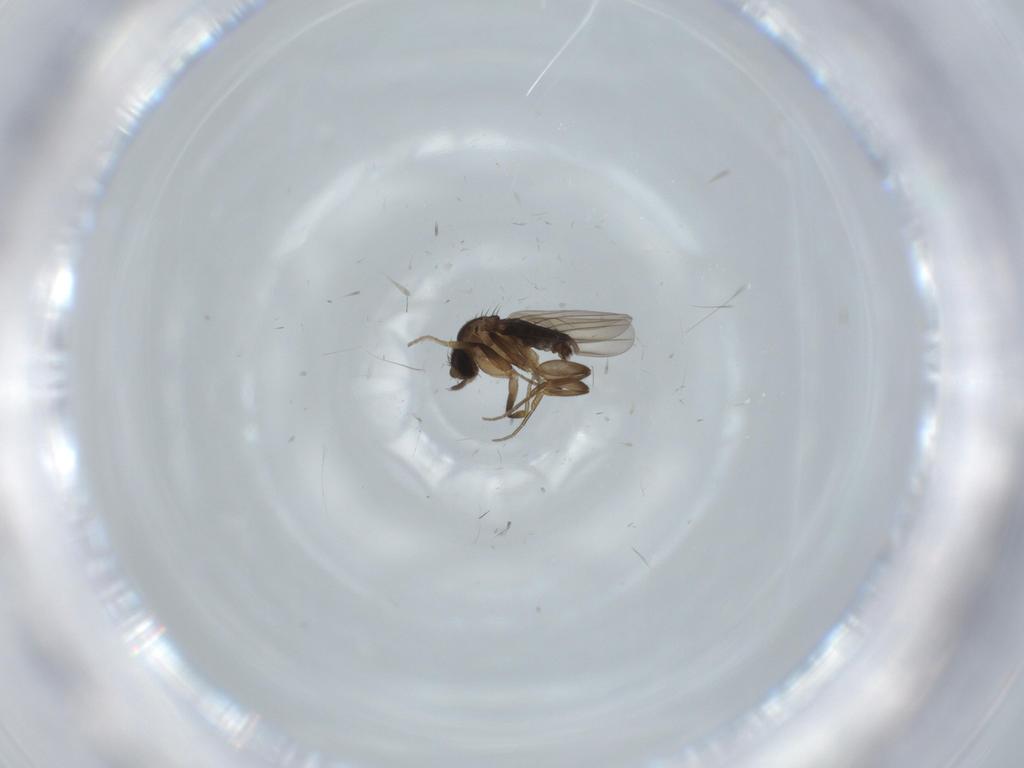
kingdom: Animalia
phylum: Arthropoda
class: Insecta
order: Diptera
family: Phoridae
